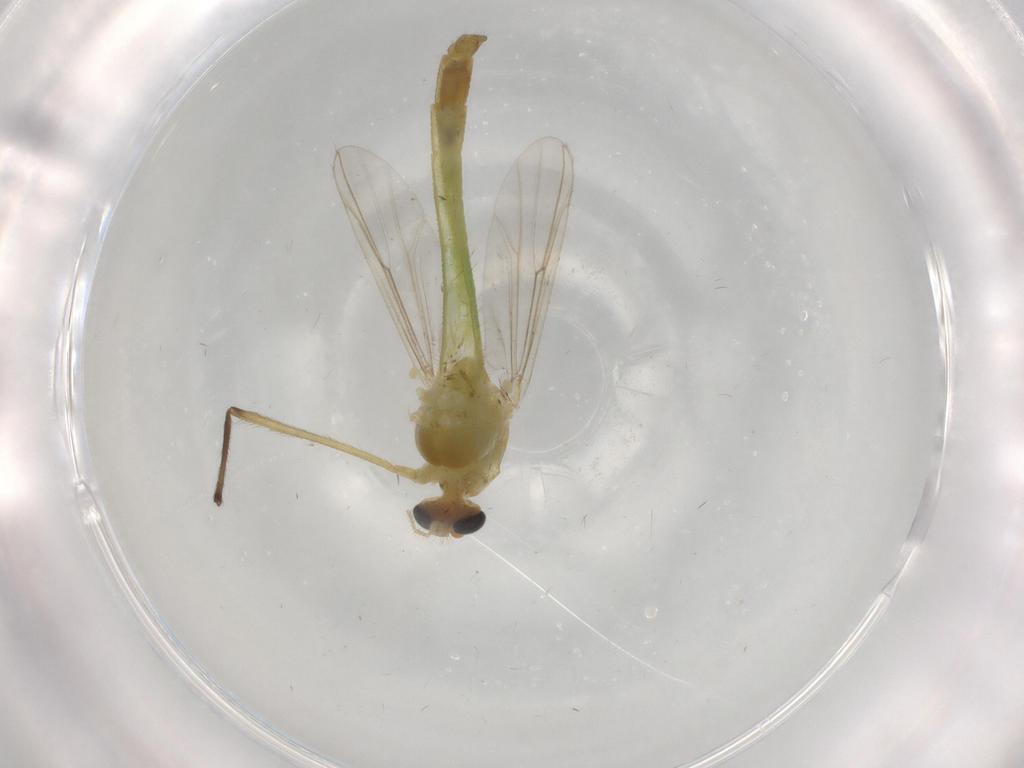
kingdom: Animalia
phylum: Arthropoda
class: Insecta
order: Diptera
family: Chironomidae
